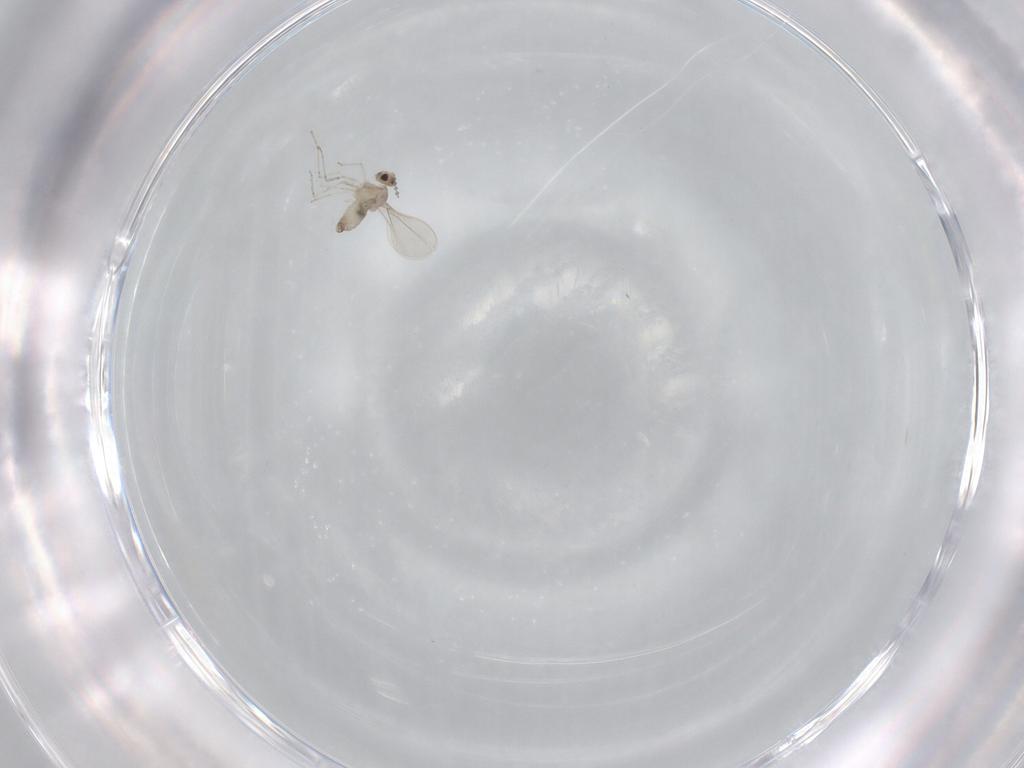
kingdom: Animalia
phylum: Arthropoda
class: Insecta
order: Diptera
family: Cecidomyiidae
